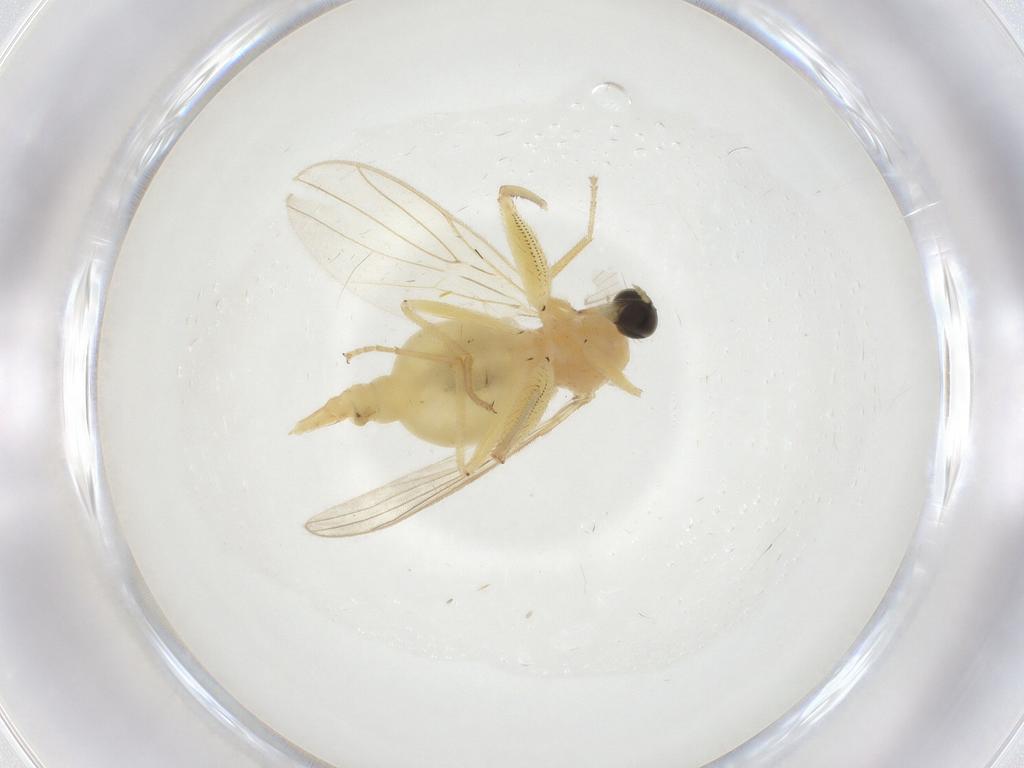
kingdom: Animalia
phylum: Arthropoda
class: Insecta
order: Diptera
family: Hybotidae
